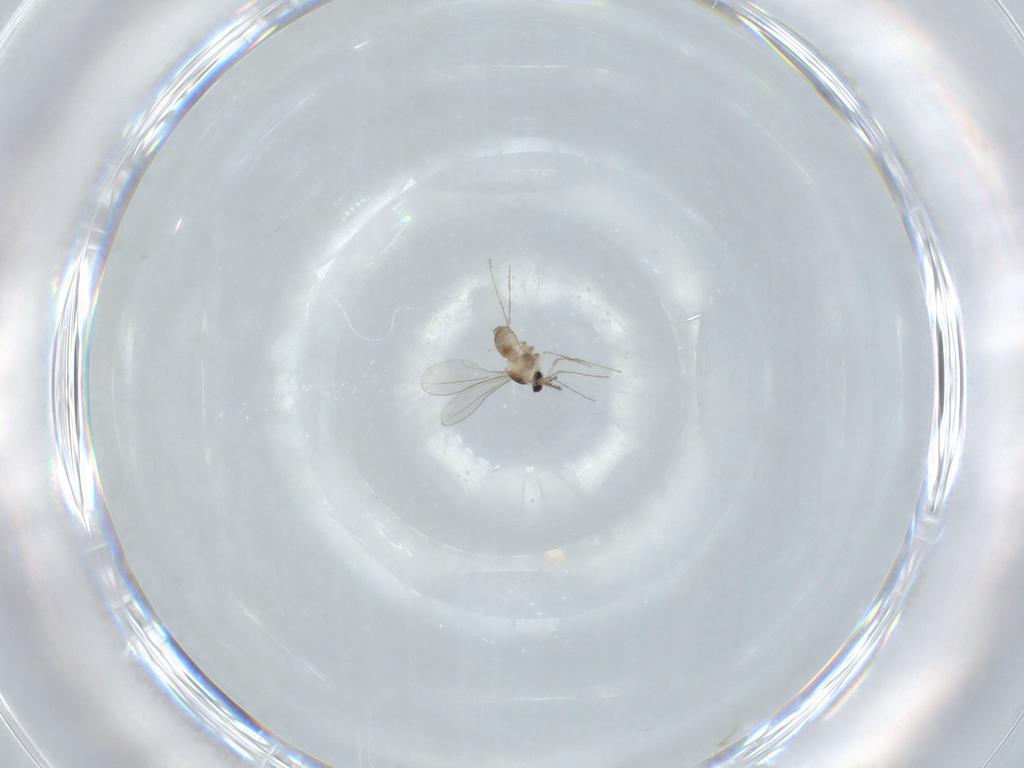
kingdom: Animalia
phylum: Arthropoda
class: Insecta
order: Diptera
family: Cecidomyiidae
